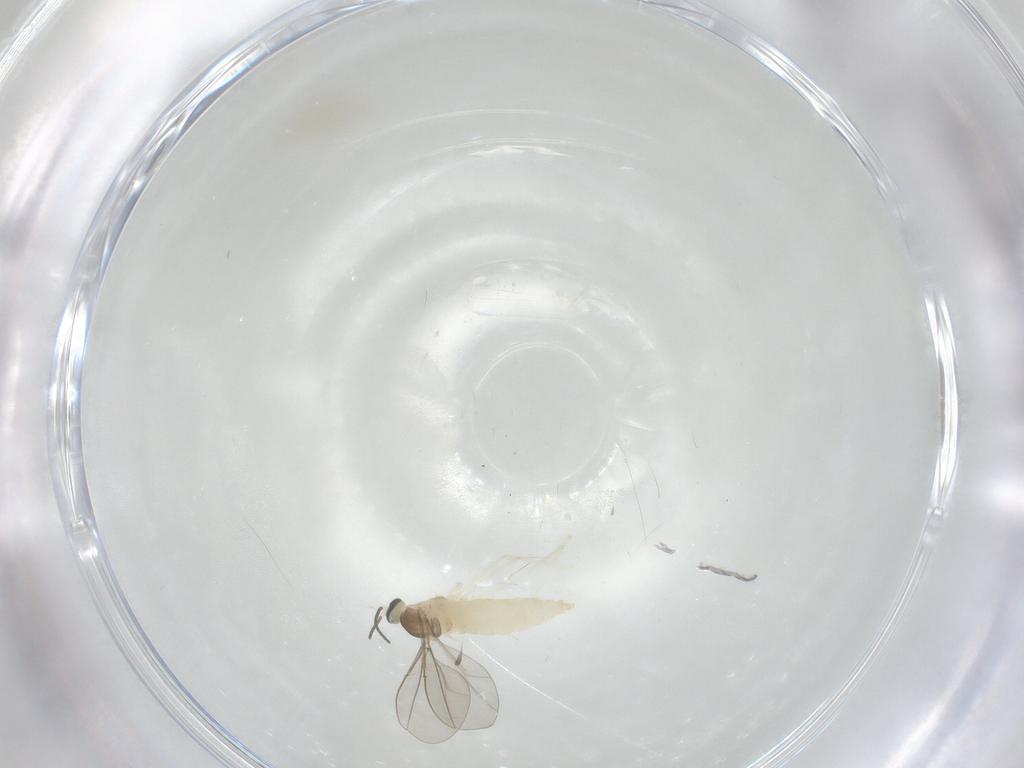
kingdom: Animalia
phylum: Arthropoda
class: Insecta
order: Diptera
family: Cecidomyiidae
